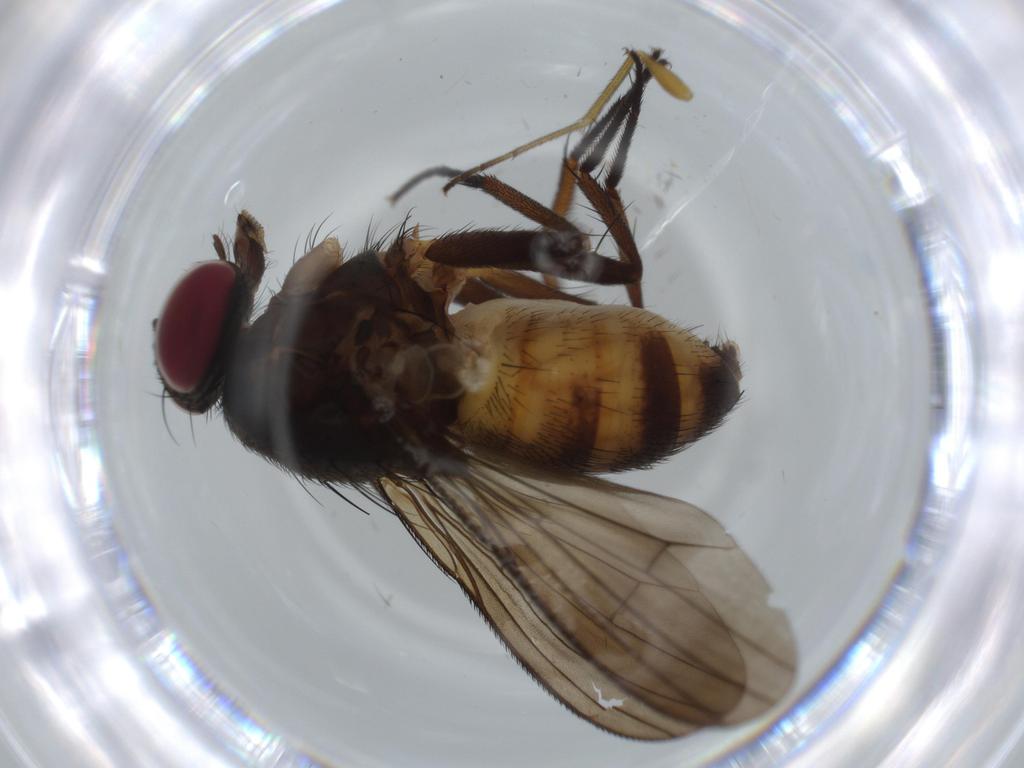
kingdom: Animalia
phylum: Arthropoda
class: Insecta
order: Diptera
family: Muscidae
